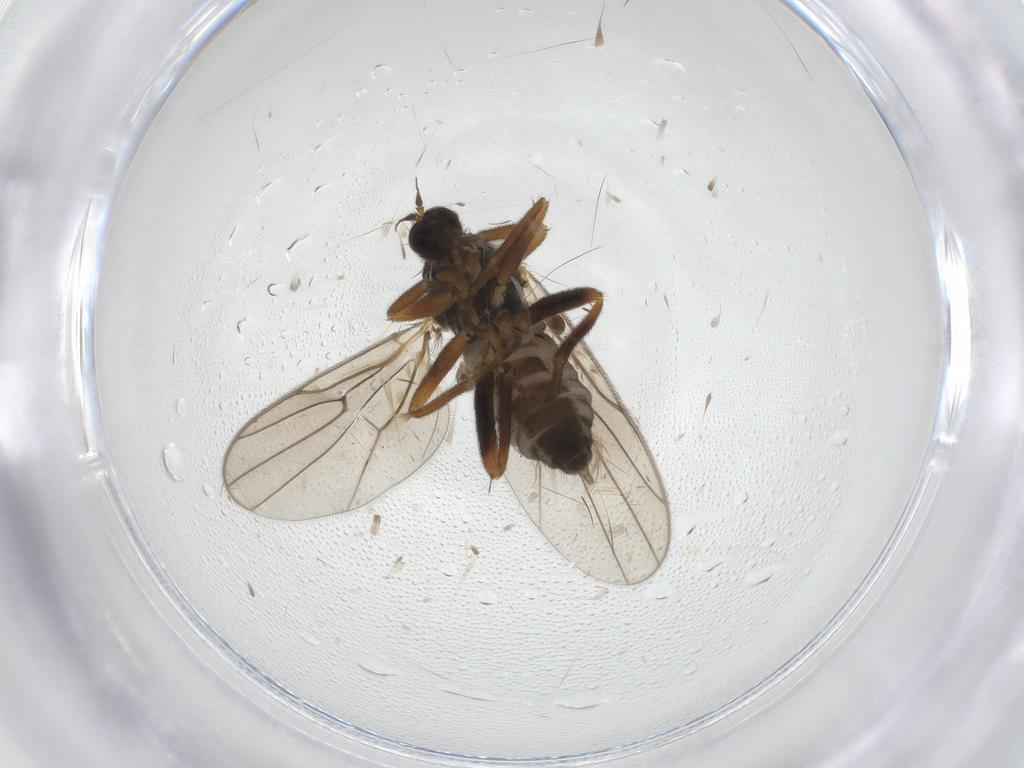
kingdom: Animalia
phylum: Arthropoda
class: Insecta
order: Diptera
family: Hybotidae
